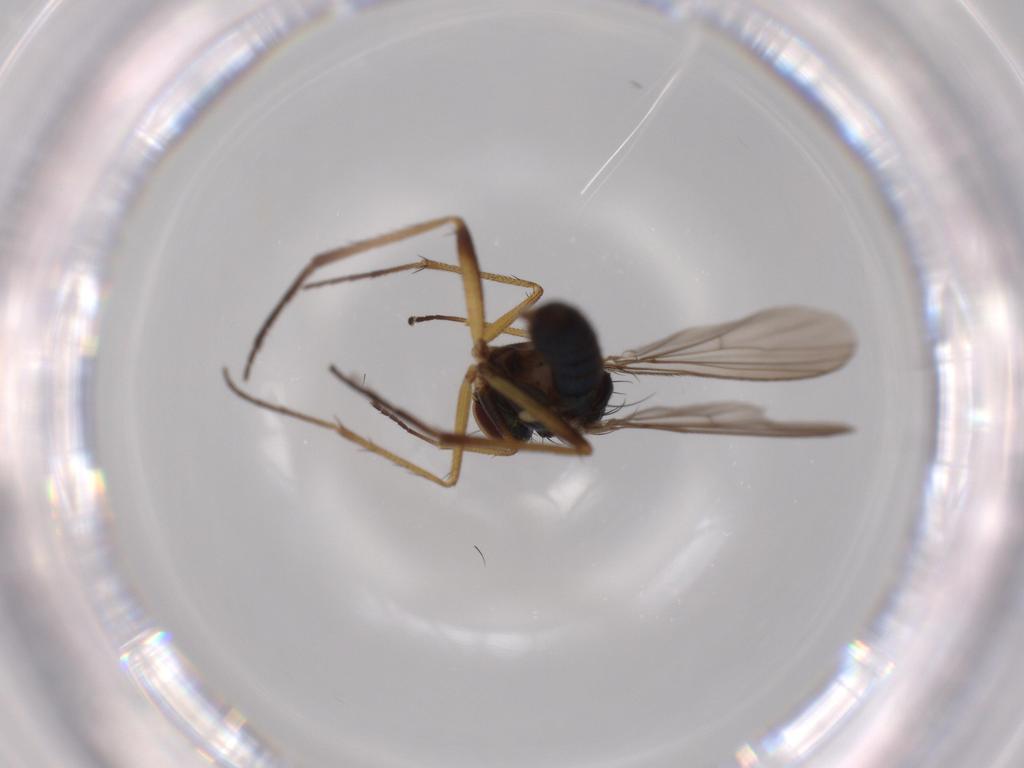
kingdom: Animalia
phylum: Arthropoda
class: Insecta
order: Diptera
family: Dolichopodidae
